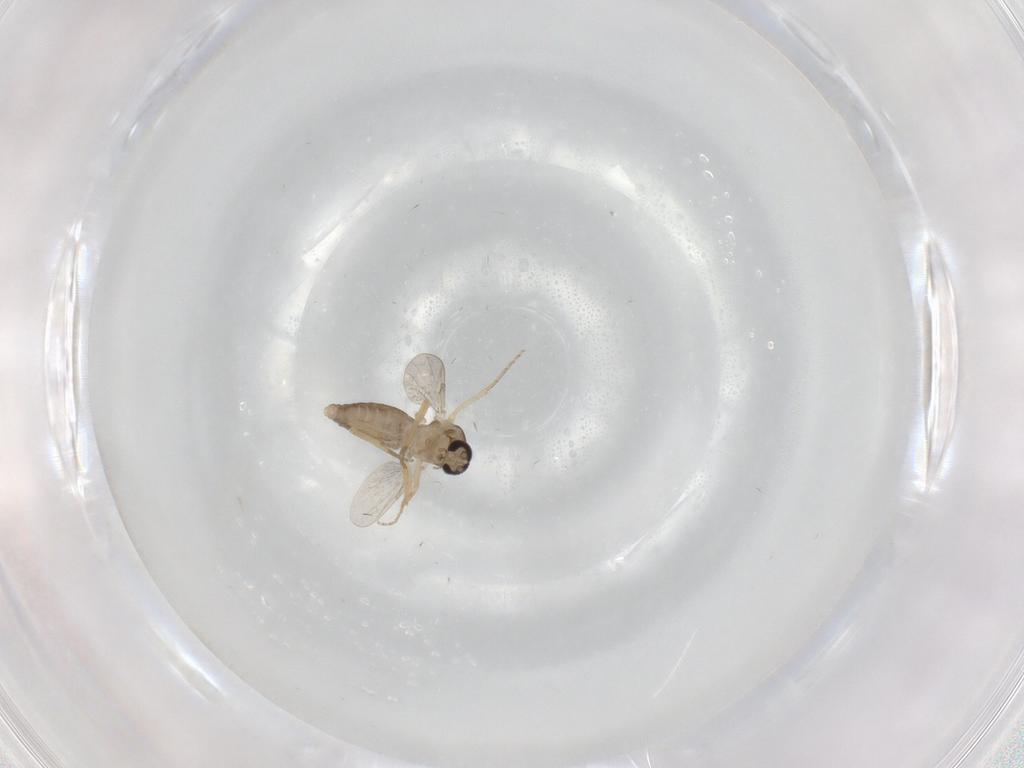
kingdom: Animalia
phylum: Arthropoda
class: Insecta
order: Diptera
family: Ceratopogonidae
